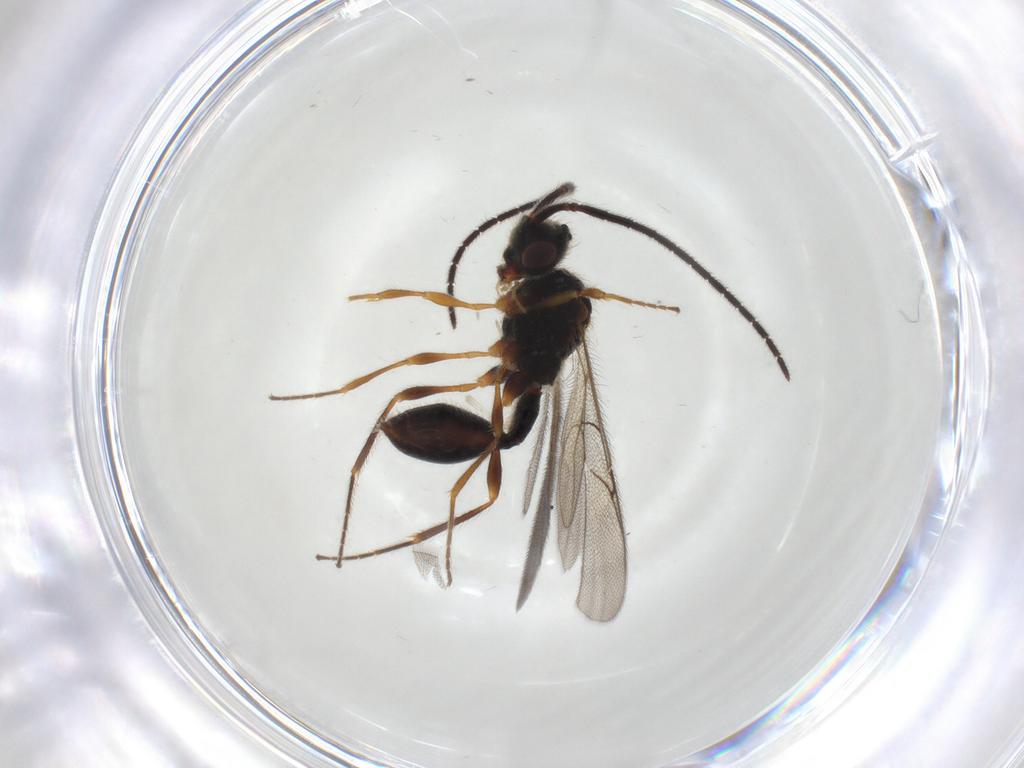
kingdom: Animalia
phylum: Arthropoda
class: Insecta
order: Hymenoptera
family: Diapriidae
